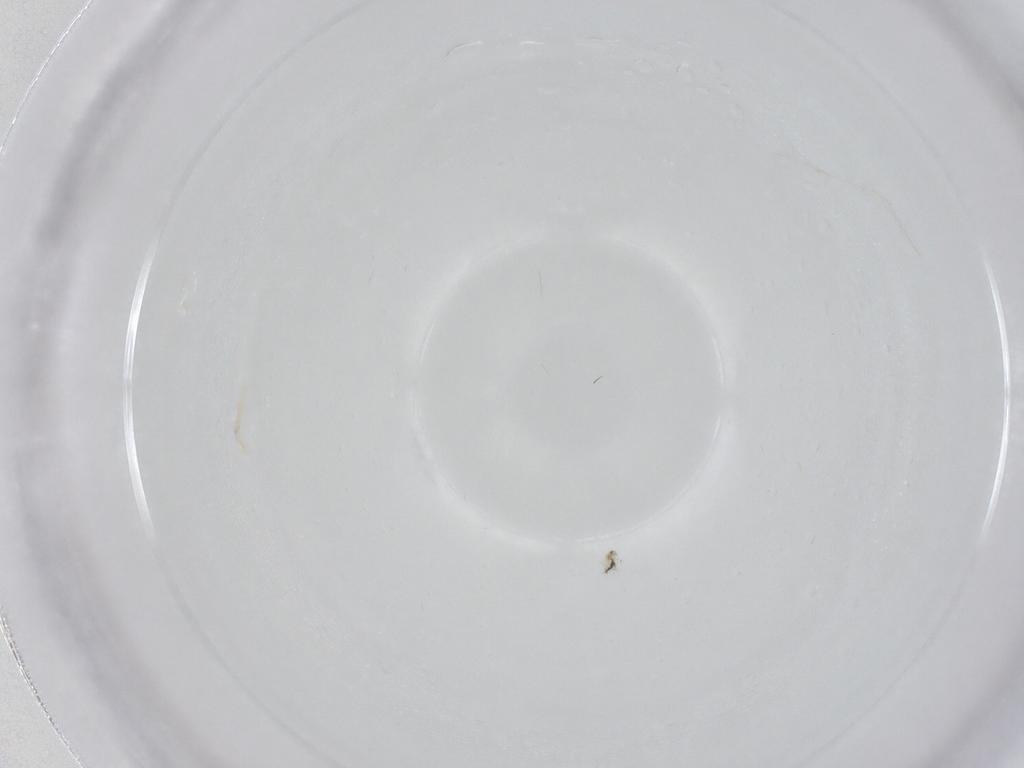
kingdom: Animalia
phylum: Arthropoda
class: Collembola
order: Entomobryomorpha
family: Entomobryidae
